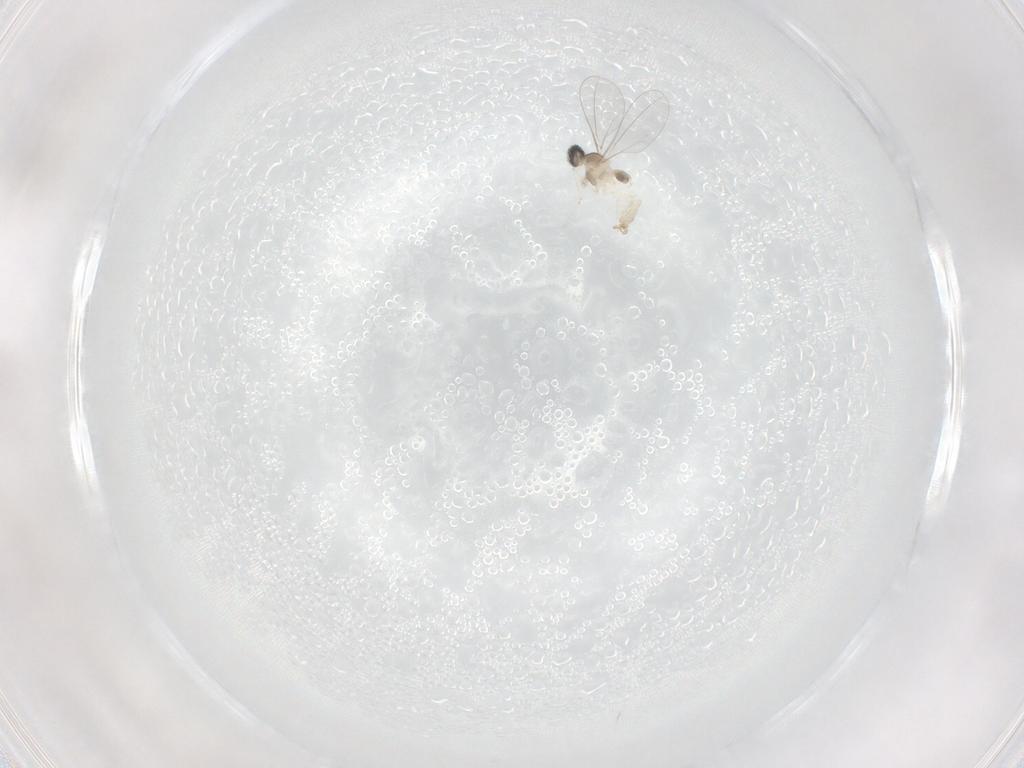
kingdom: Animalia
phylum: Arthropoda
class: Insecta
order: Diptera
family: Cecidomyiidae
